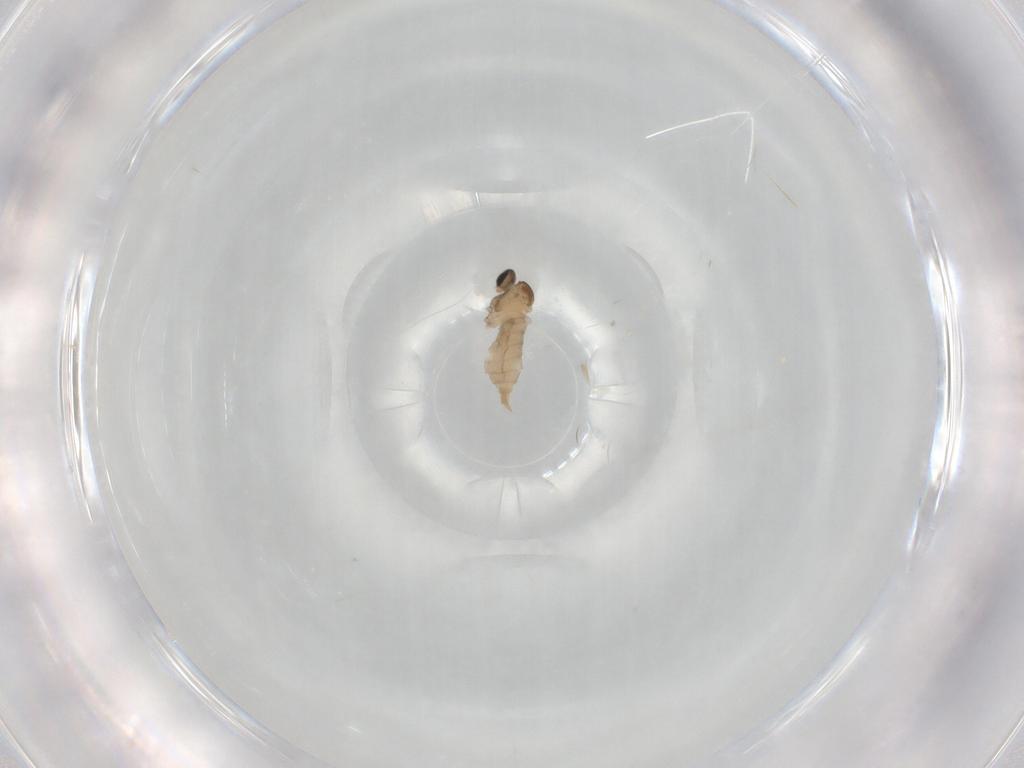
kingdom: Animalia
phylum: Arthropoda
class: Insecta
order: Diptera
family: Cecidomyiidae
